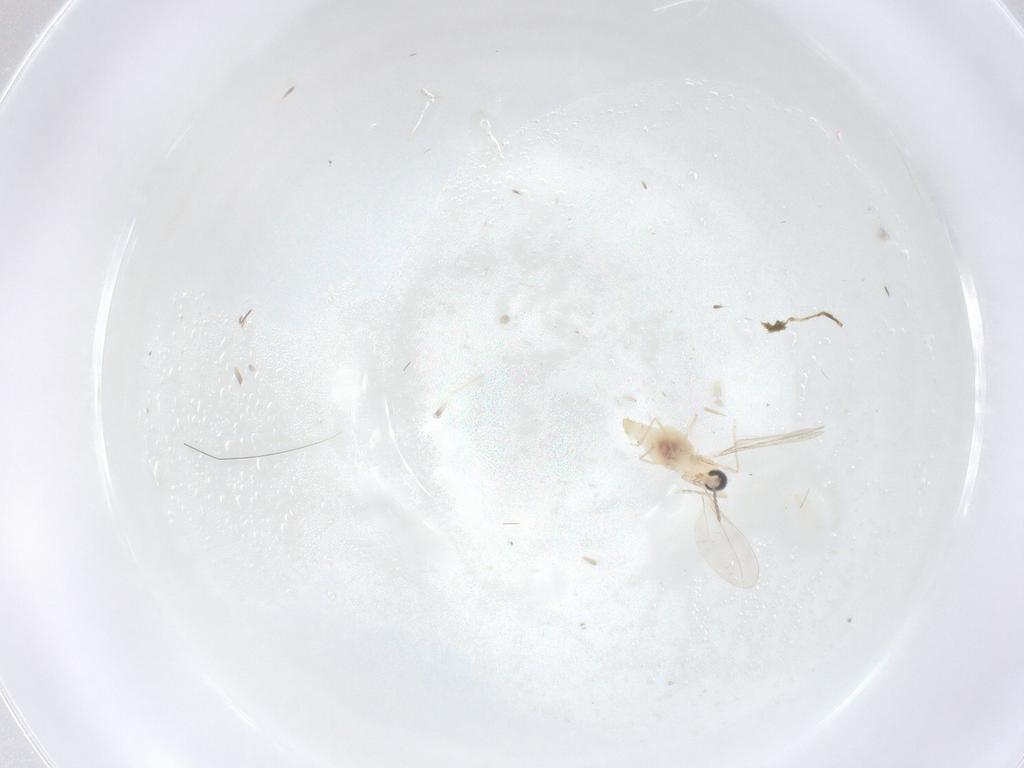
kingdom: Animalia
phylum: Arthropoda
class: Insecta
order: Diptera
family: Cecidomyiidae
